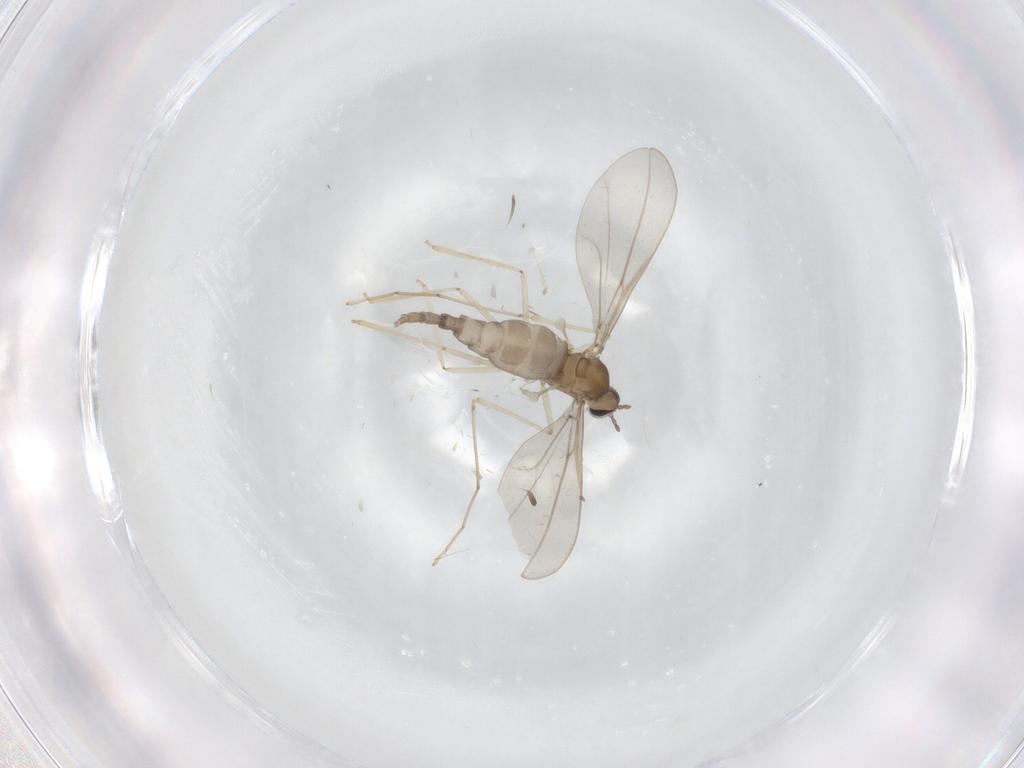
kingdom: Animalia
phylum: Arthropoda
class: Insecta
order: Diptera
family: Cecidomyiidae
